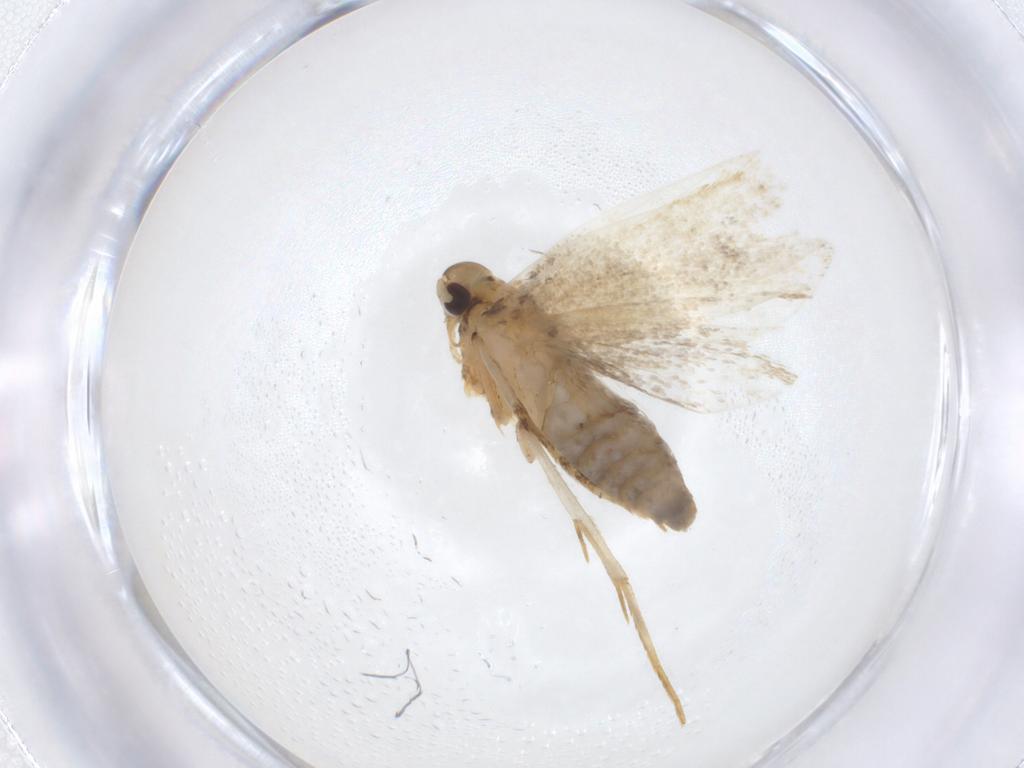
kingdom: Animalia
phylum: Arthropoda
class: Insecta
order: Lepidoptera
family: Lecithoceridae
